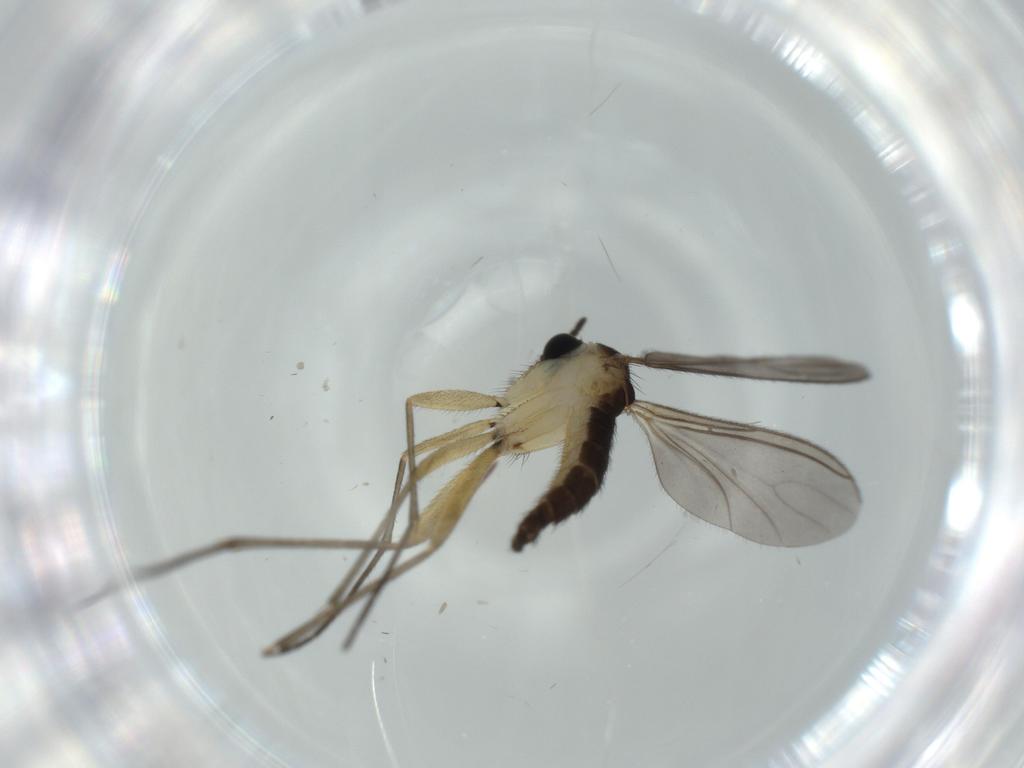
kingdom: Animalia
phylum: Arthropoda
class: Insecta
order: Diptera
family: Sciaridae
